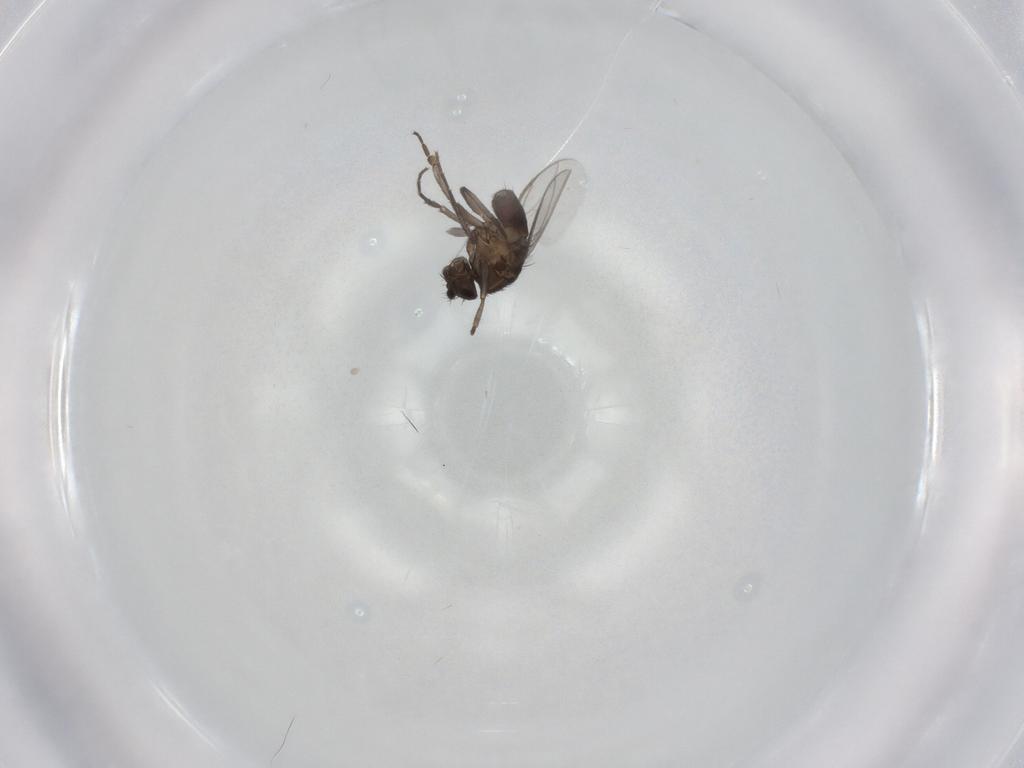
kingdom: Animalia
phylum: Arthropoda
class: Insecta
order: Diptera
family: Sphaeroceridae
